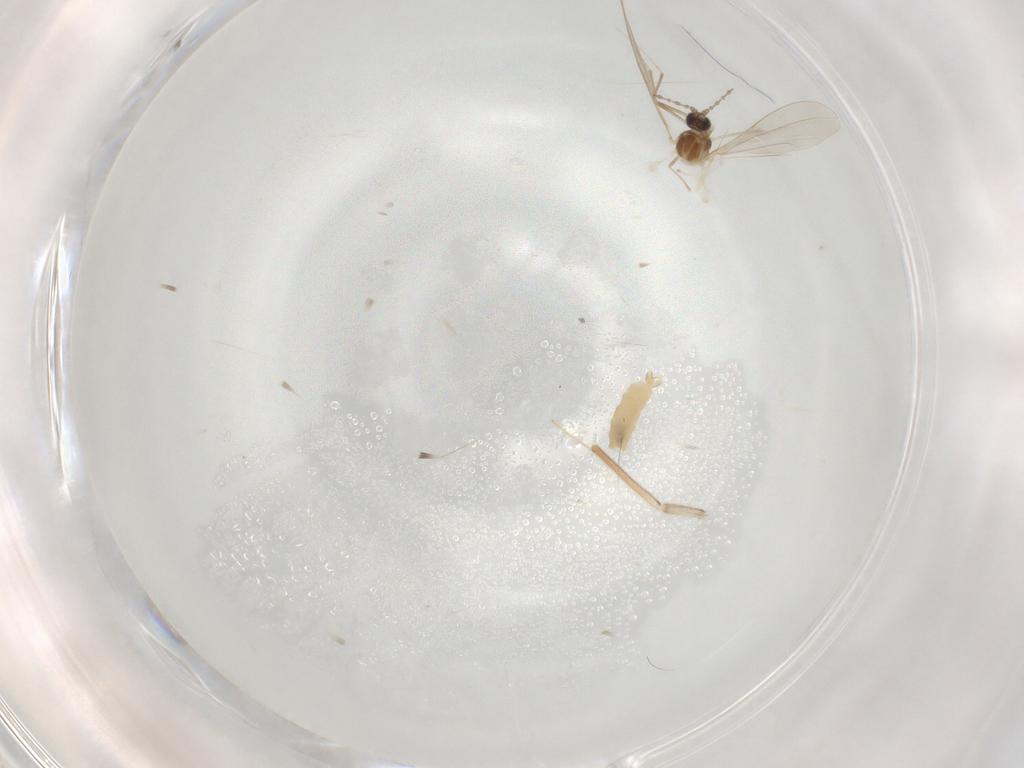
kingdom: Animalia
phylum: Arthropoda
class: Insecta
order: Diptera
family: Cecidomyiidae
